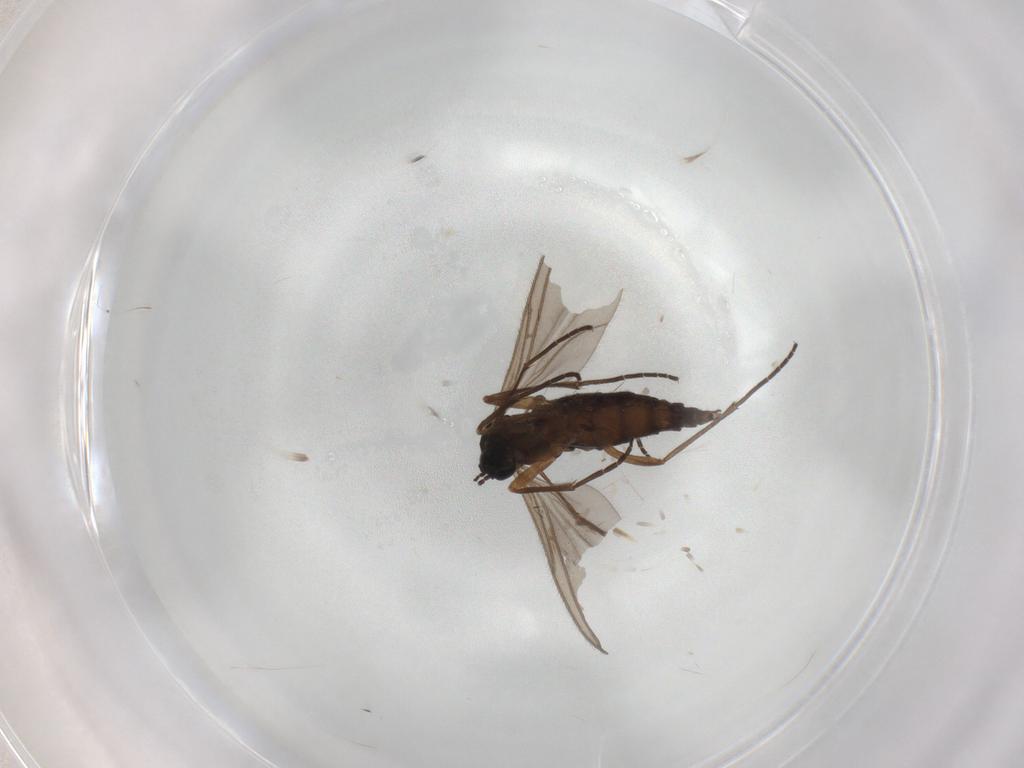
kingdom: Animalia
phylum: Arthropoda
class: Insecta
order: Diptera
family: Sciaridae
